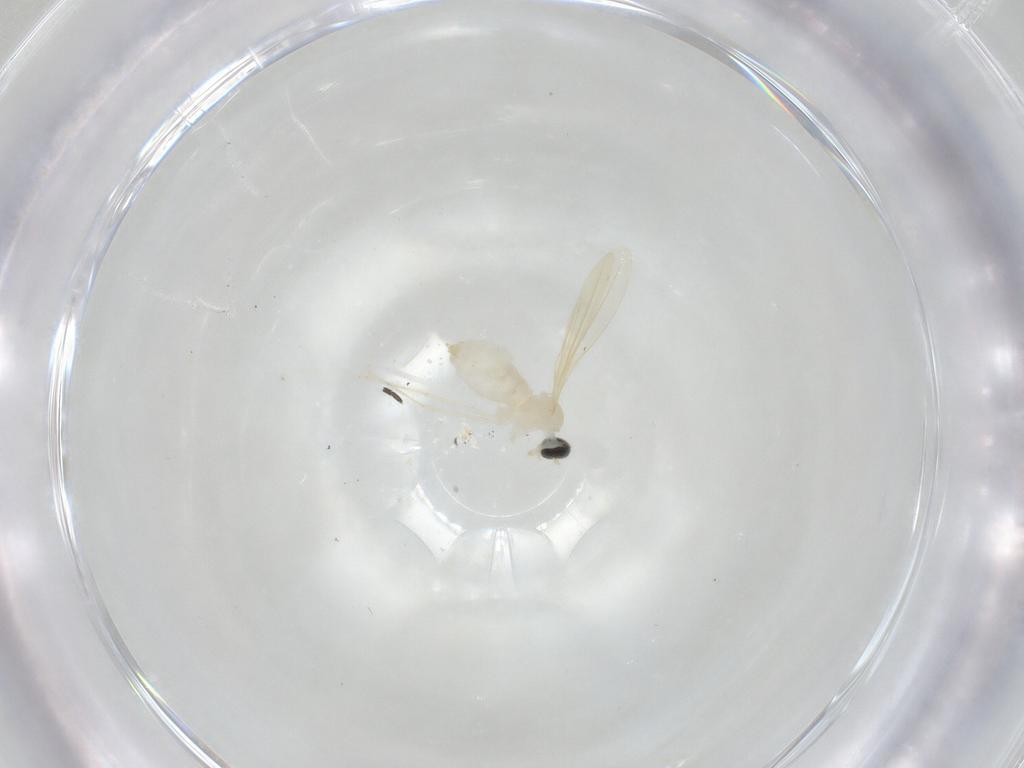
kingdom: Animalia
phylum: Arthropoda
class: Insecta
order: Diptera
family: Cecidomyiidae
